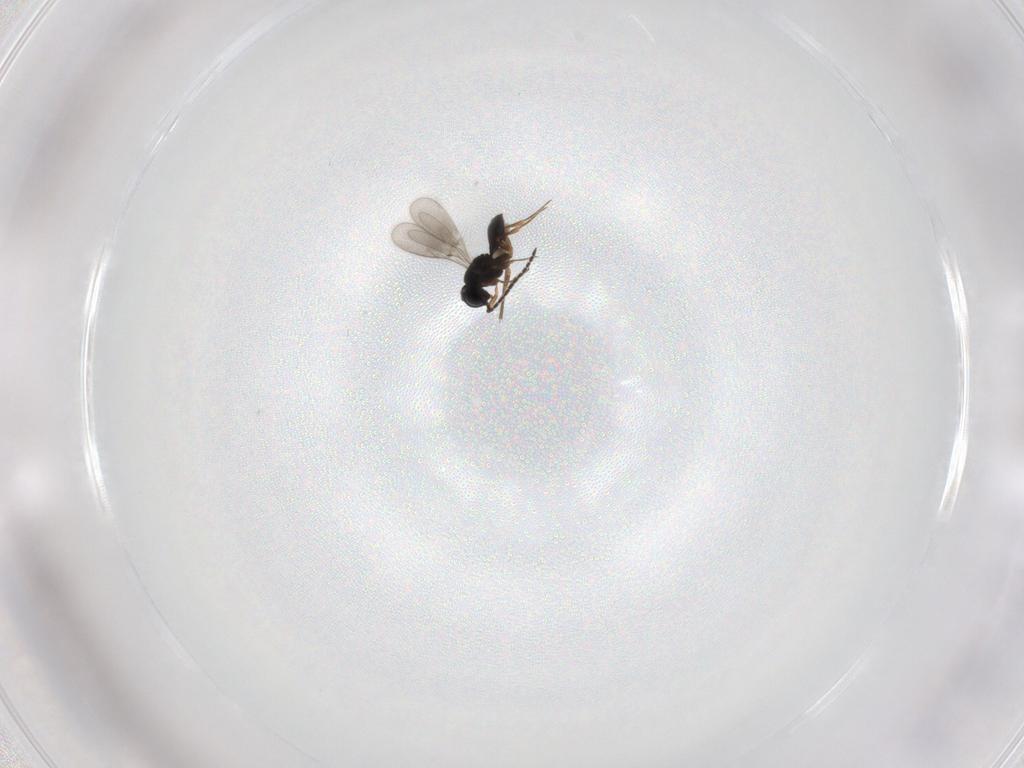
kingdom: Animalia
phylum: Arthropoda
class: Insecta
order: Hymenoptera
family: Scelionidae
